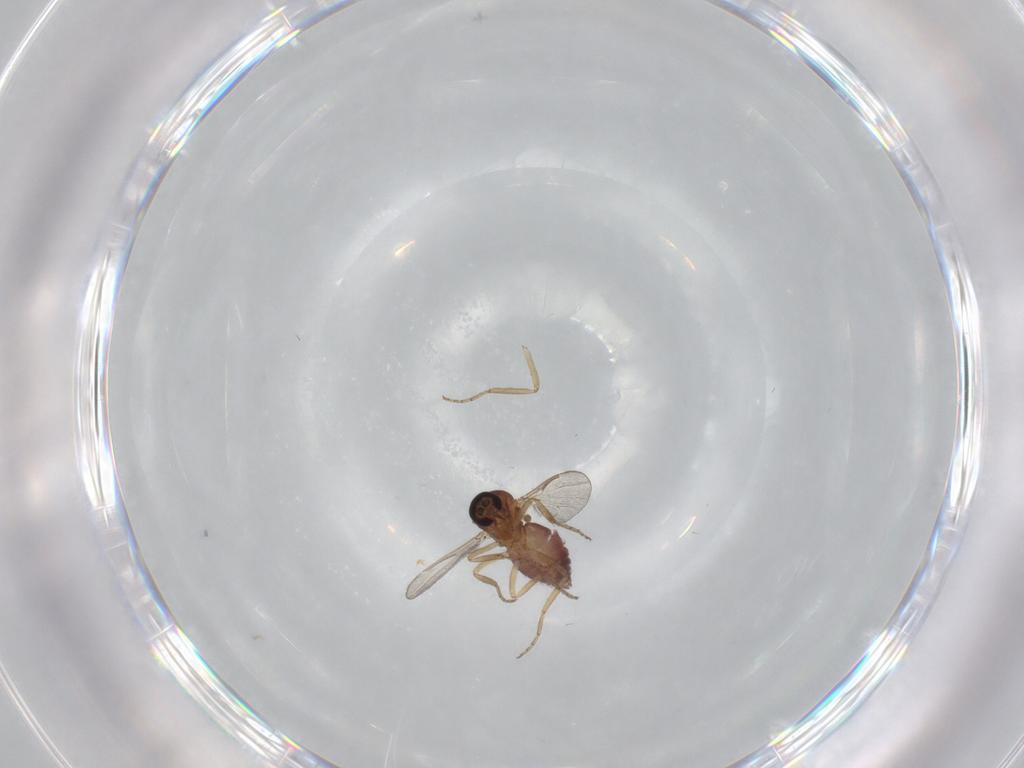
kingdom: Animalia
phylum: Arthropoda
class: Insecta
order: Diptera
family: Ceratopogonidae
